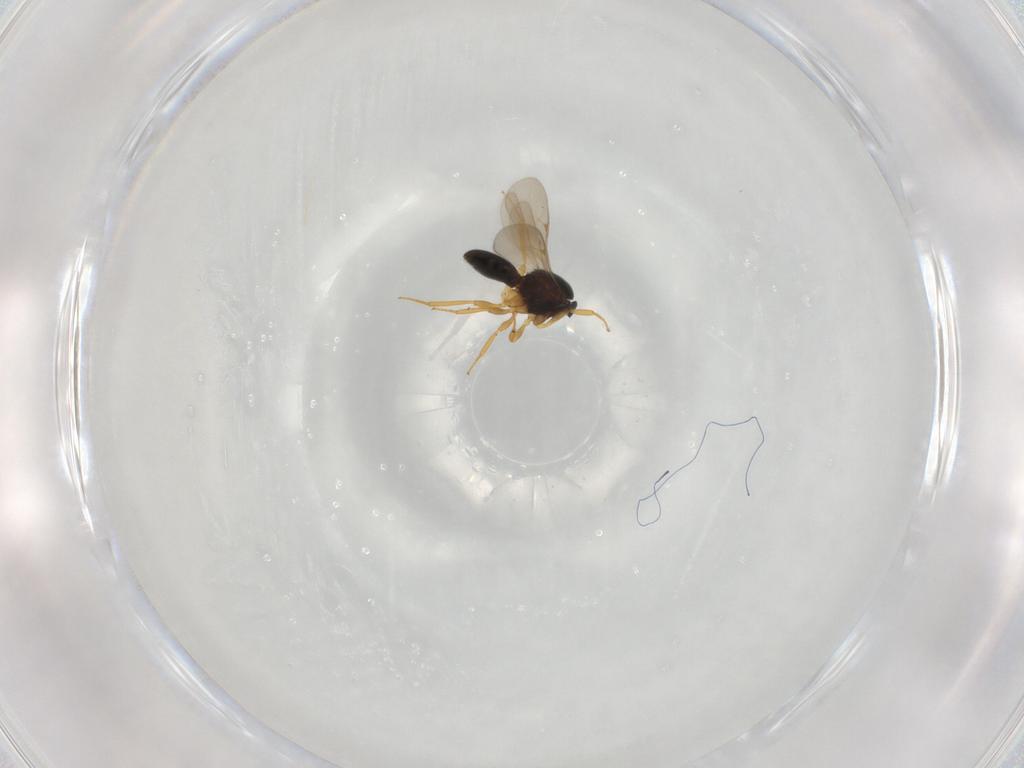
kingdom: Animalia
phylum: Arthropoda
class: Insecta
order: Hymenoptera
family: Scelionidae
